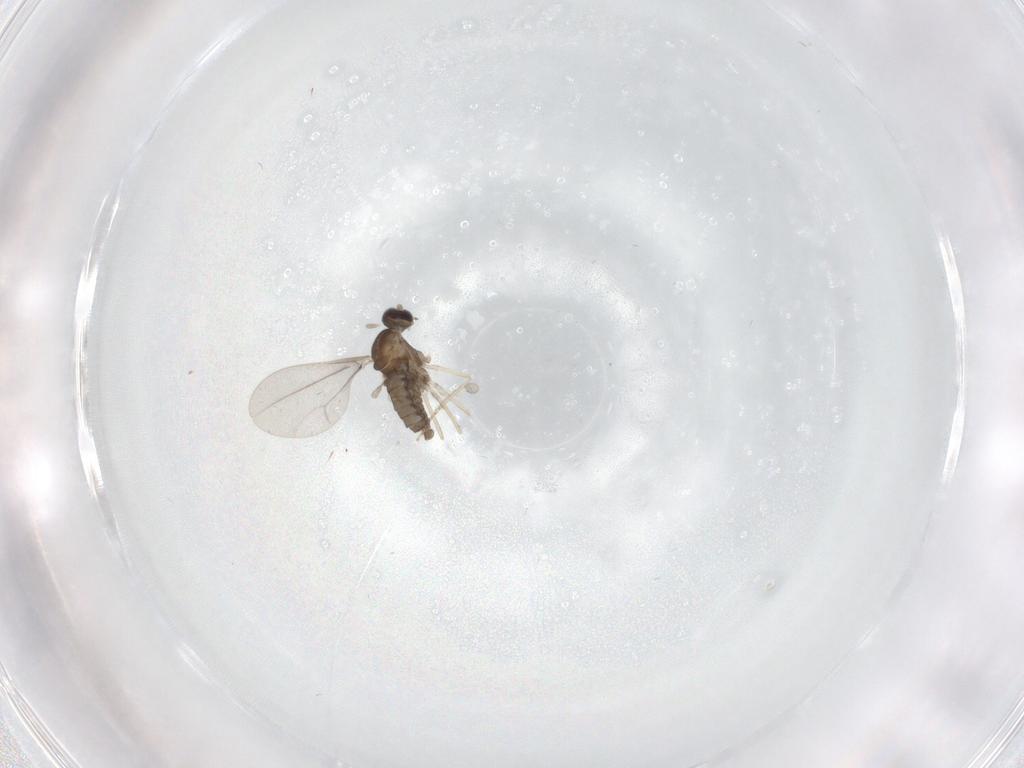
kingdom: Animalia
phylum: Arthropoda
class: Insecta
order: Diptera
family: Cecidomyiidae
